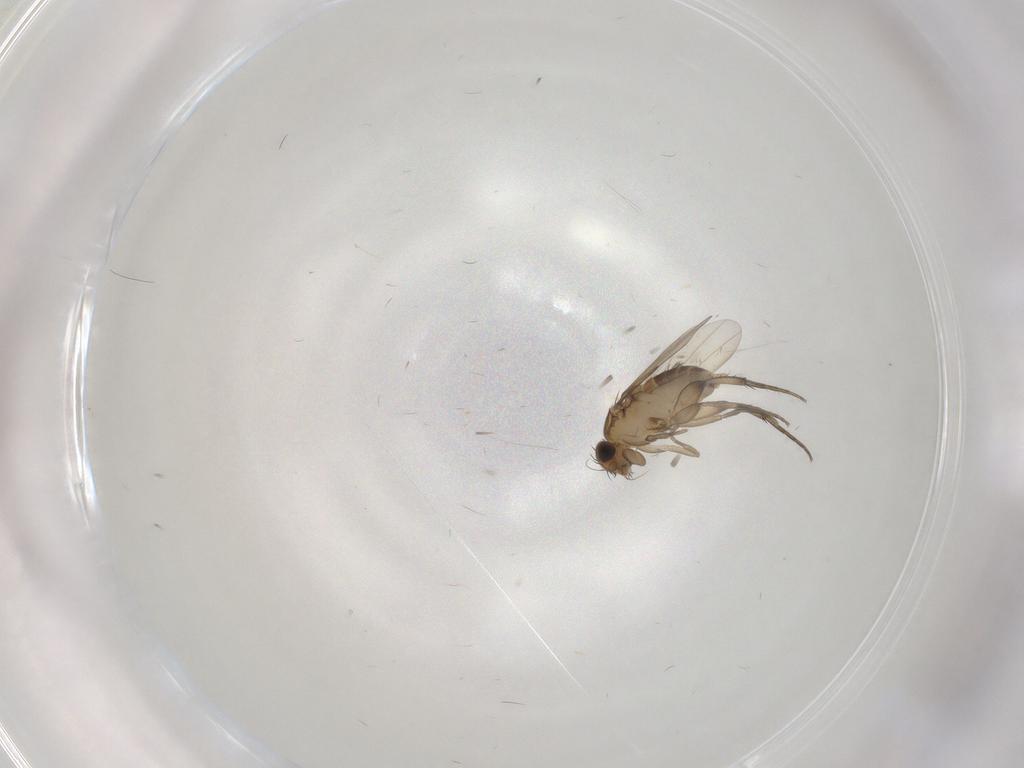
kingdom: Animalia
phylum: Arthropoda
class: Insecta
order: Diptera
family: Phoridae
